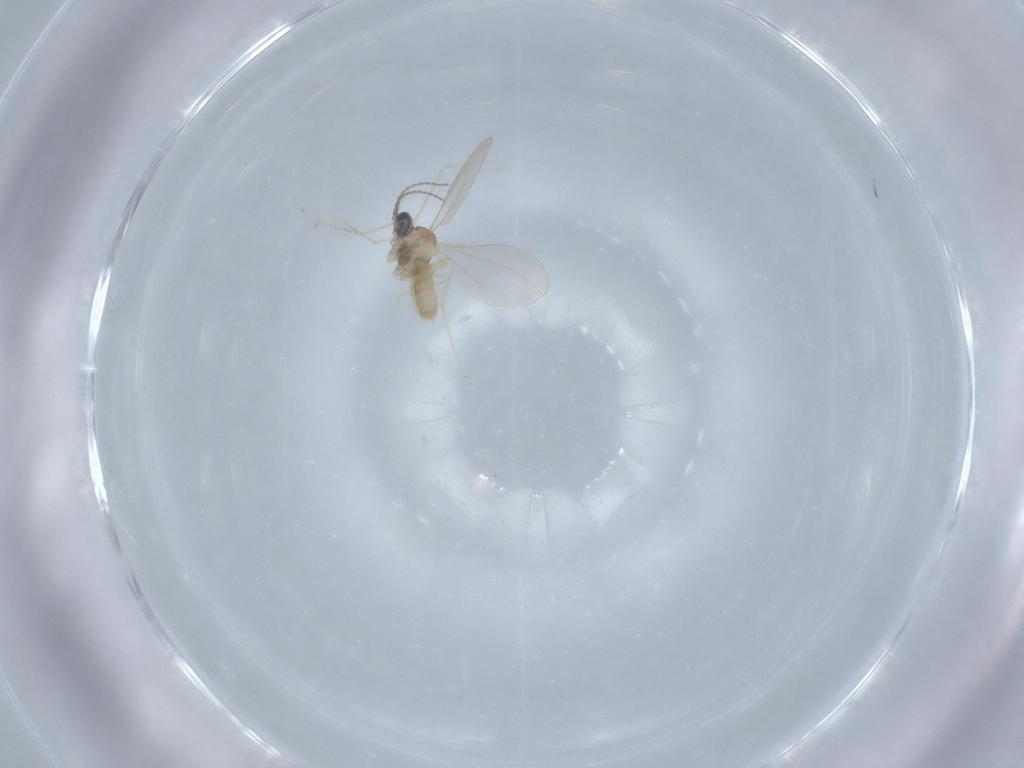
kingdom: Animalia
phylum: Arthropoda
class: Insecta
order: Diptera
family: Cecidomyiidae
